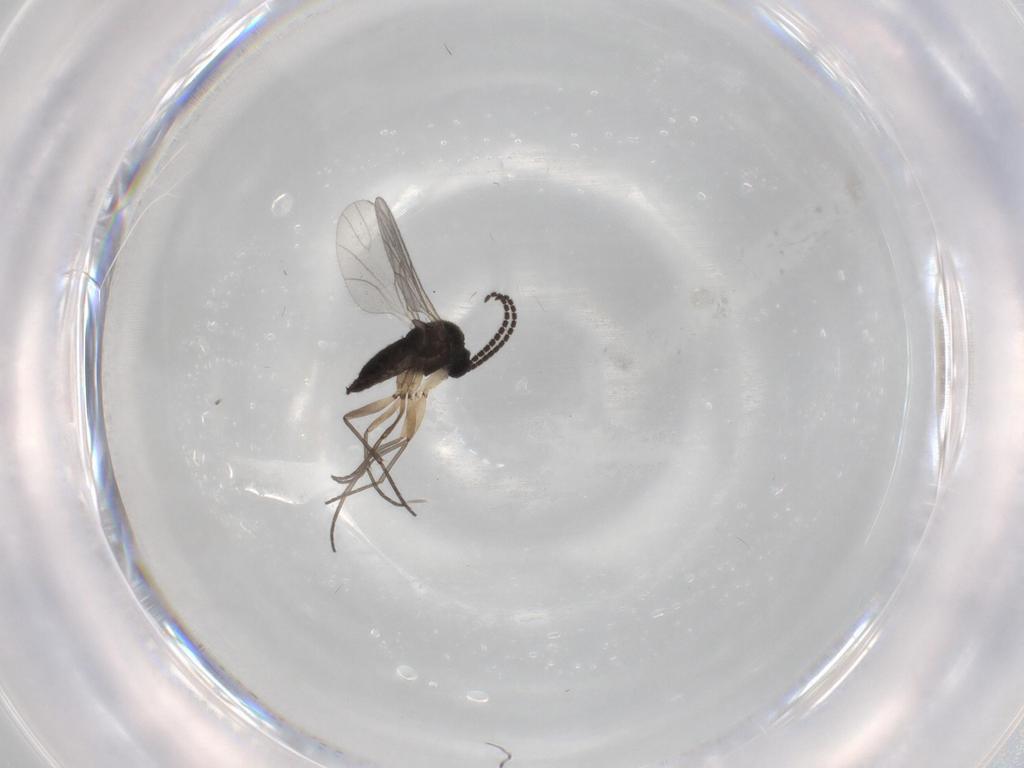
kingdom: Animalia
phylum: Arthropoda
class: Insecta
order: Diptera
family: Sciaridae
